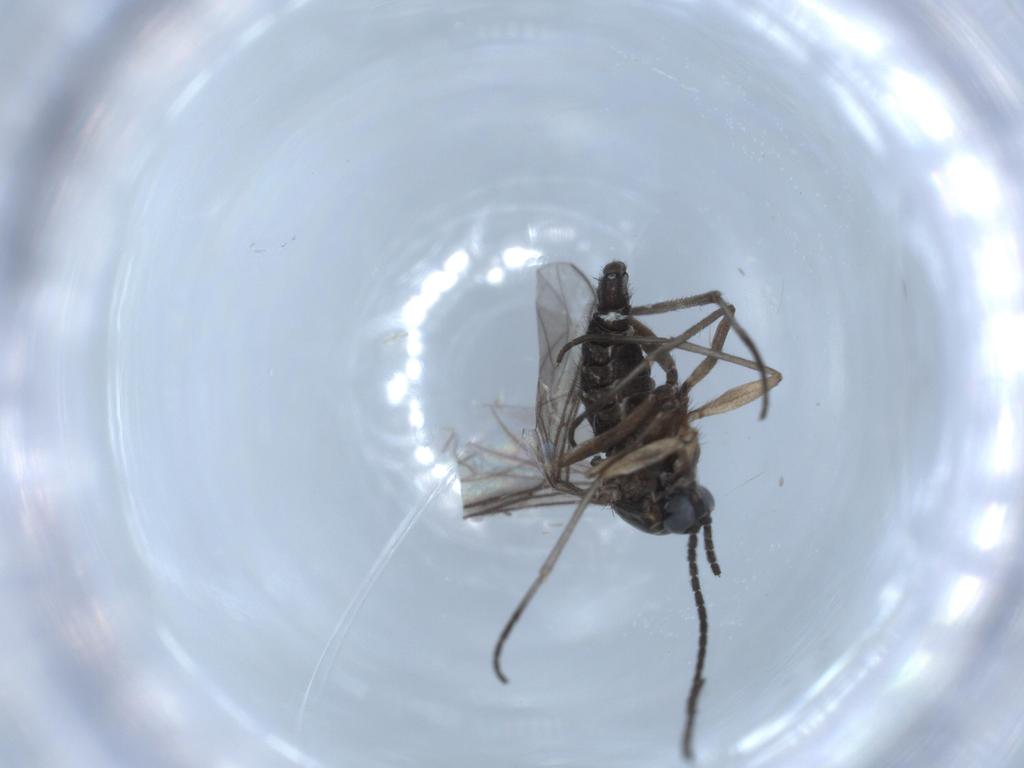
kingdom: Animalia
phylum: Arthropoda
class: Insecta
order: Diptera
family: Sciaridae
